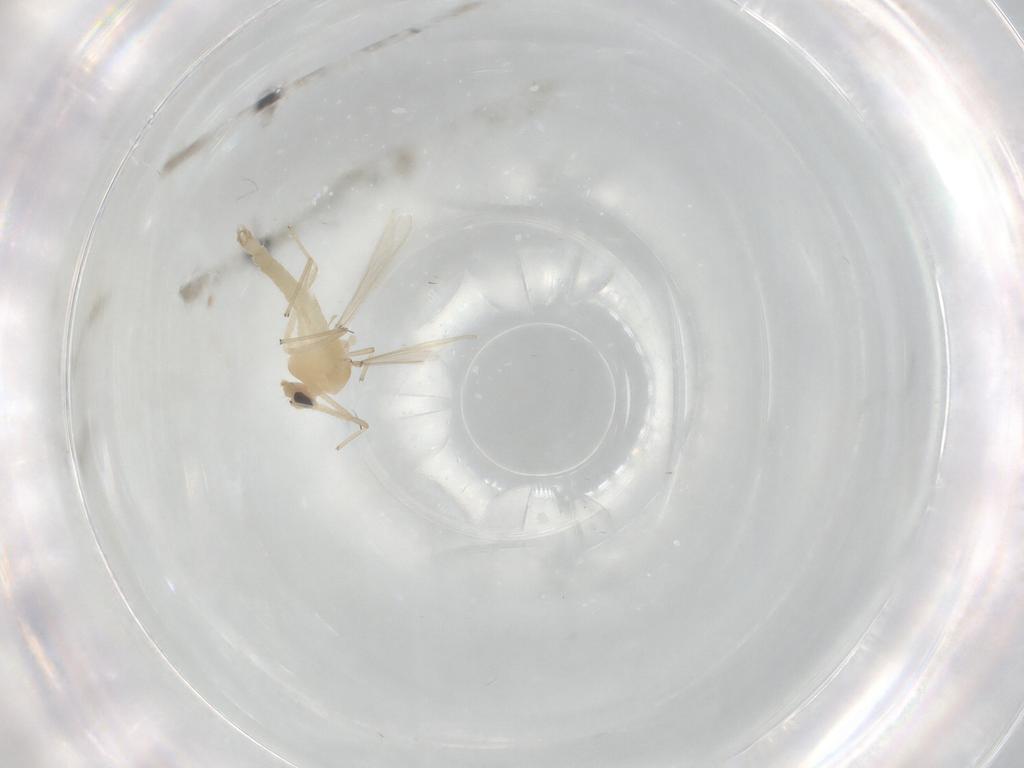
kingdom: Animalia
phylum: Arthropoda
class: Insecta
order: Diptera
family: Chironomidae
